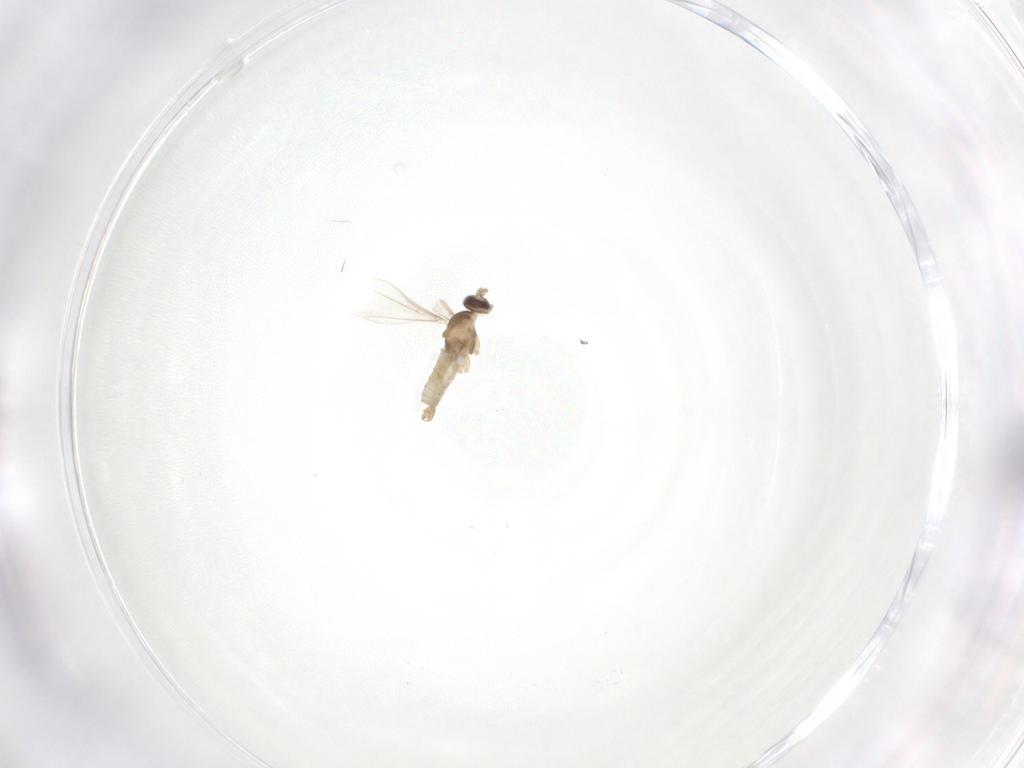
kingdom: Animalia
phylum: Arthropoda
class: Insecta
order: Diptera
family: Cecidomyiidae
